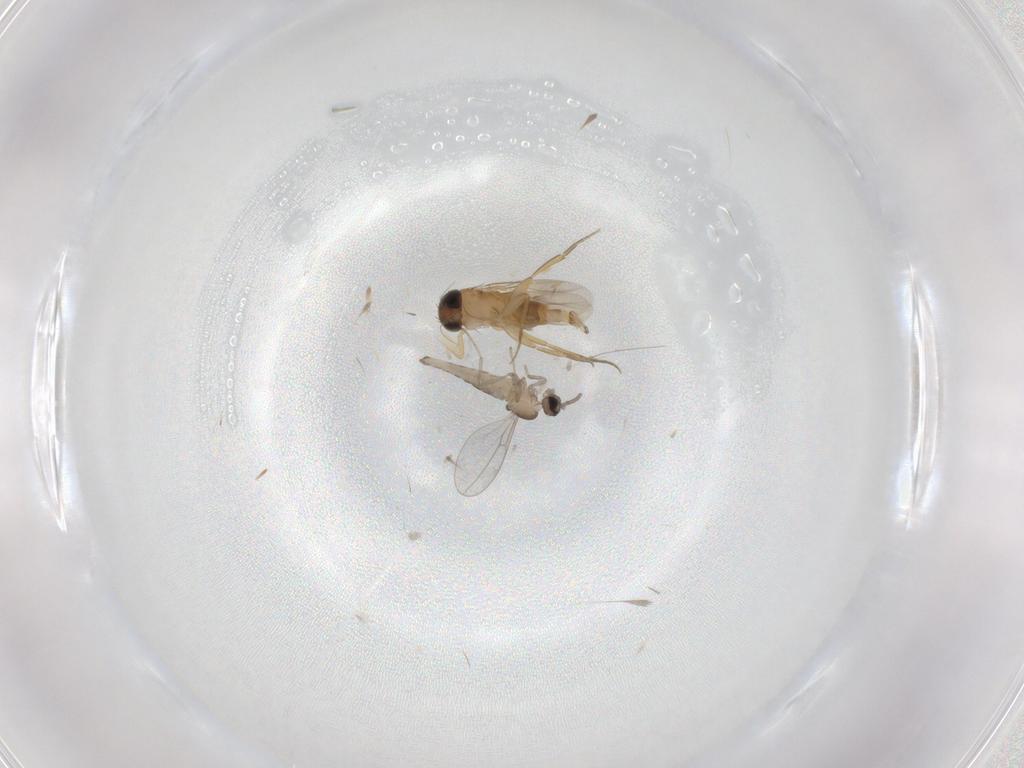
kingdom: Animalia
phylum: Arthropoda
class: Insecta
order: Diptera
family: Cecidomyiidae
